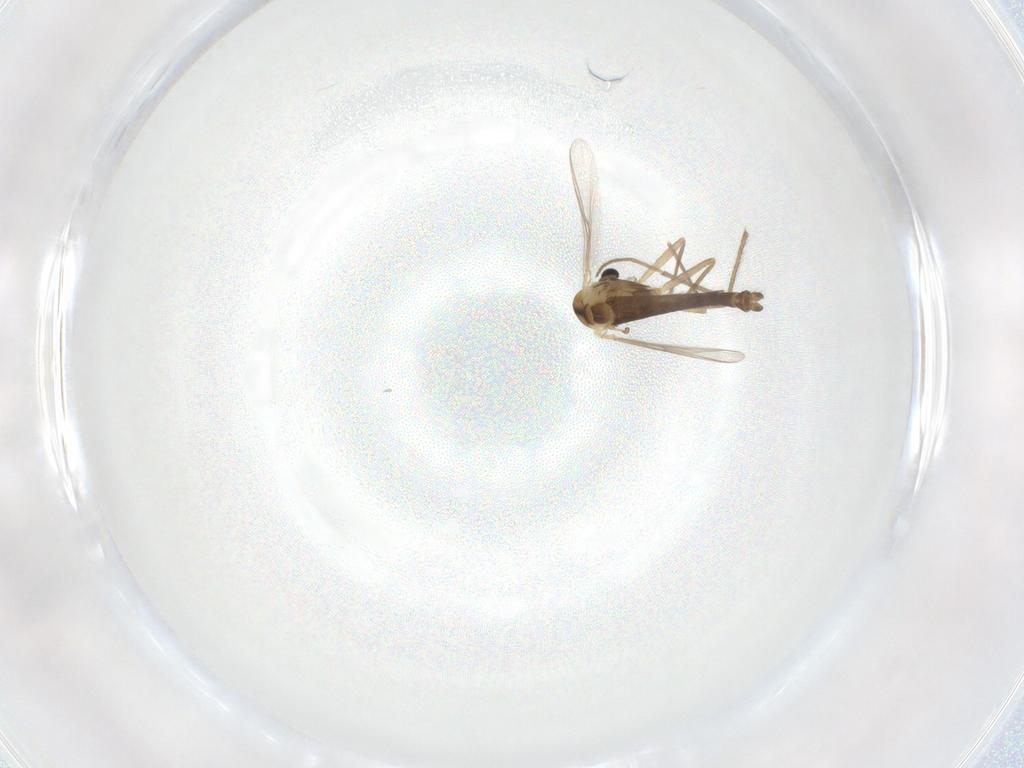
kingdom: Animalia
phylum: Arthropoda
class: Insecta
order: Diptera
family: Chironomidae
